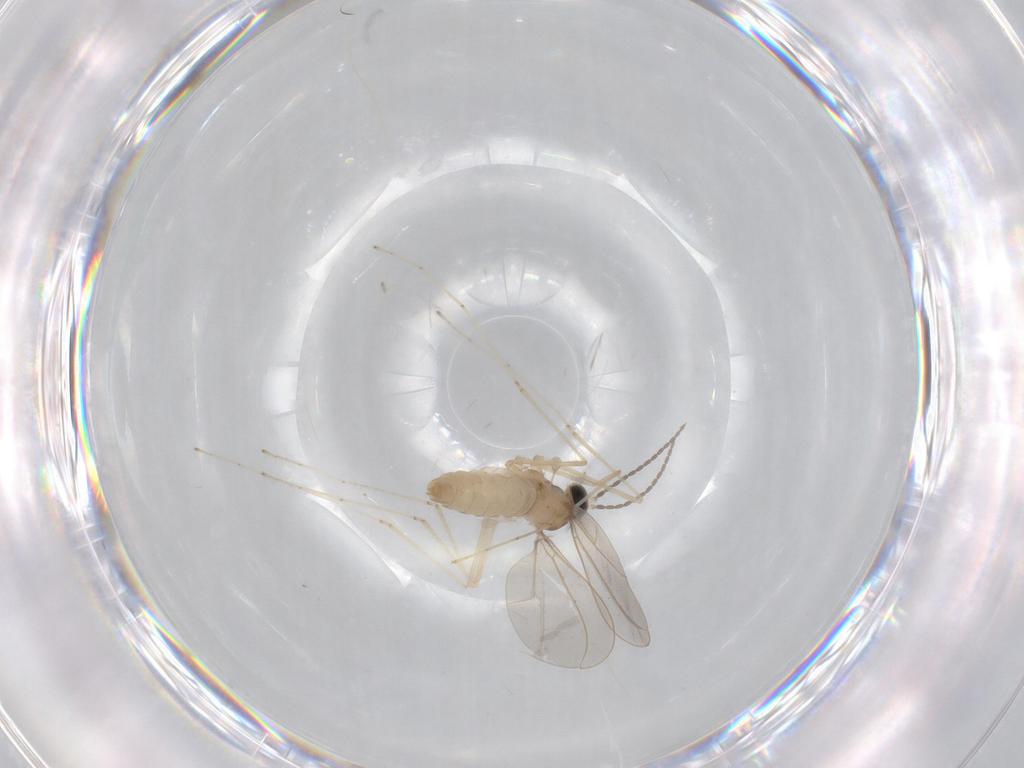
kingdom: Animalia
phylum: Arthropoda
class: Insecta
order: Diptera
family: Cecidomyiidae
